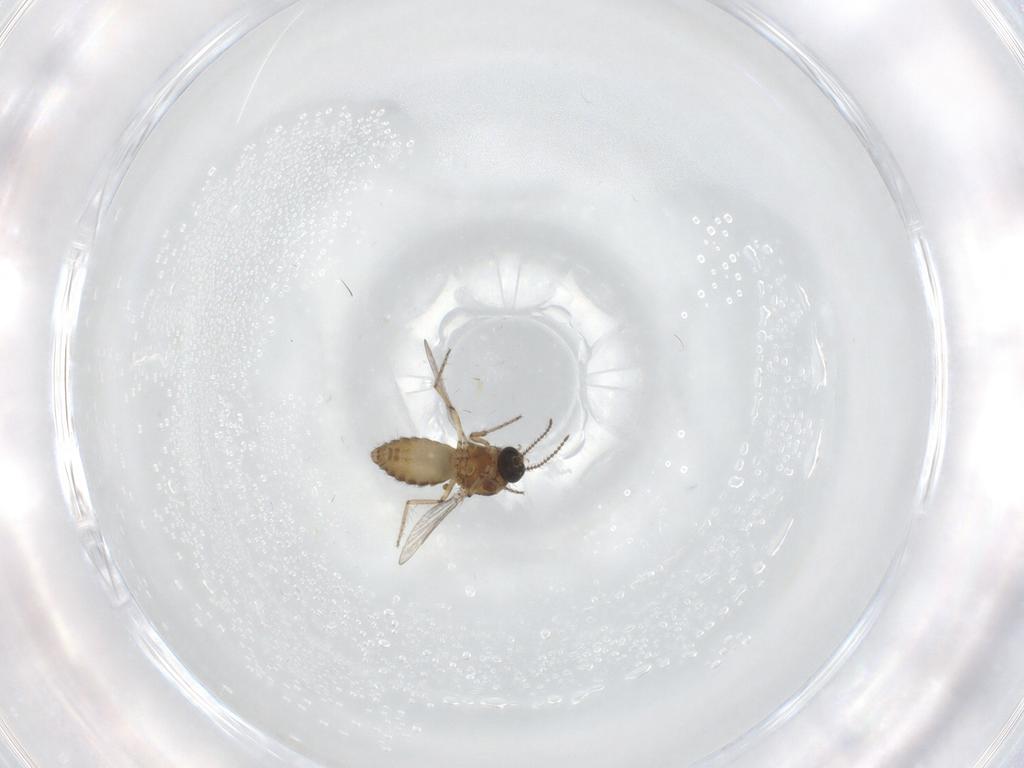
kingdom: Animalia
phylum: Arthropoda
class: Insecta
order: Diptera
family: Ceratopogonidae
